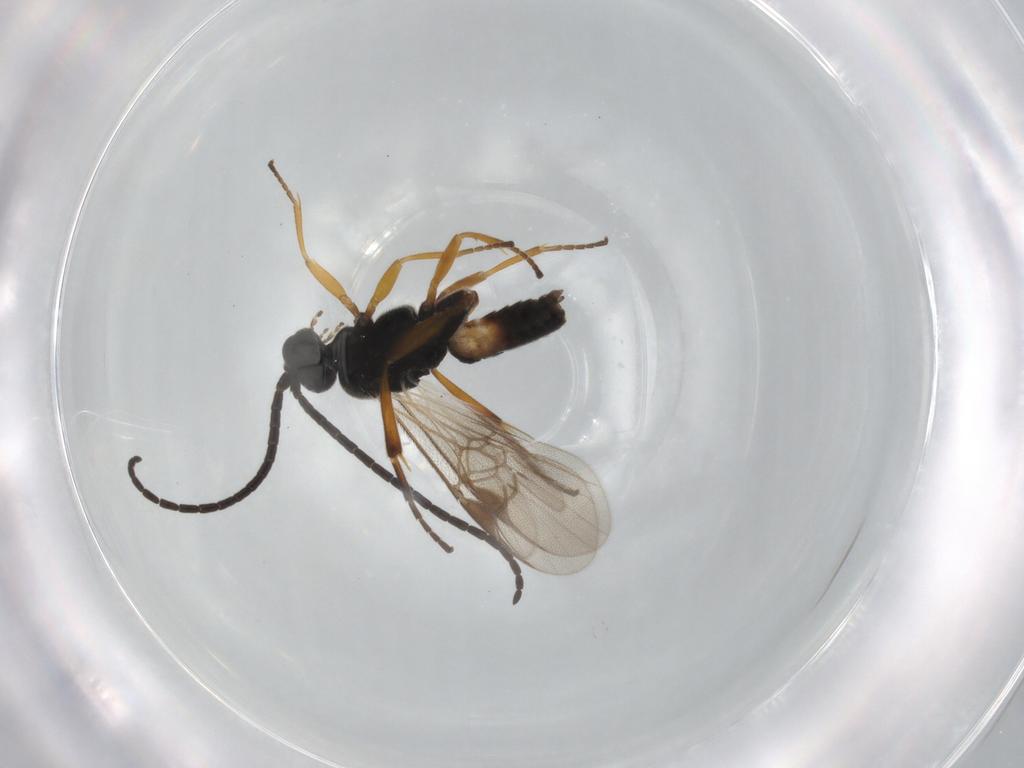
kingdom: Animalia
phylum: Arthropoda
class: Insecta
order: Hymenoptera
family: Braconidae
